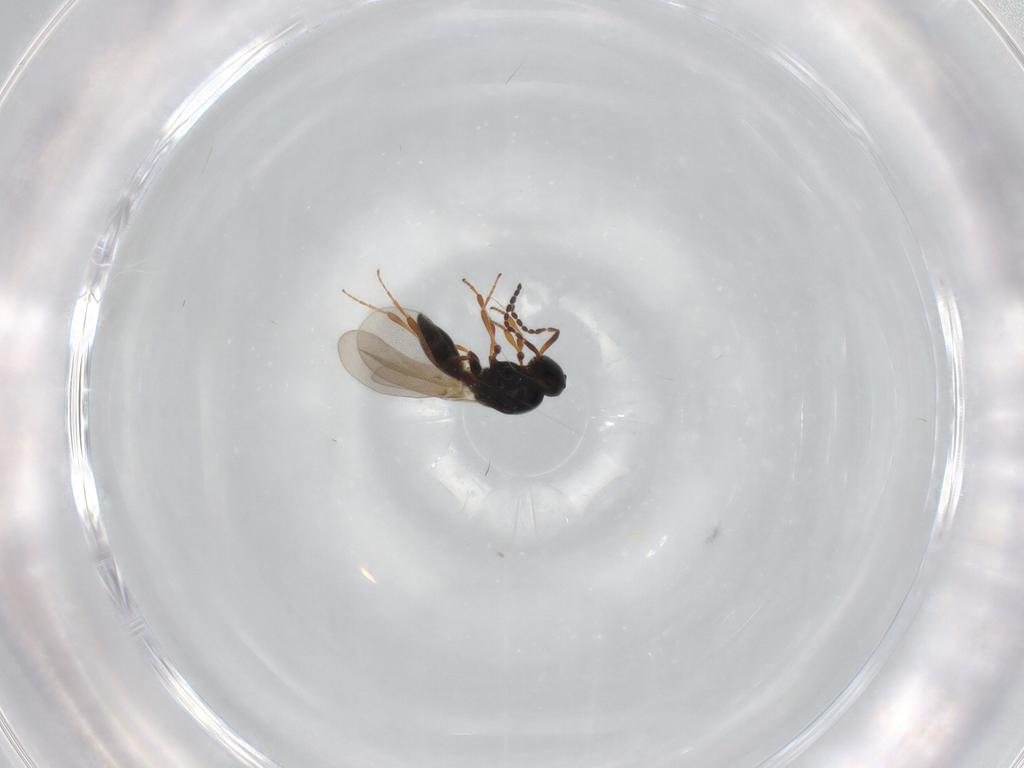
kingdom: Animalia
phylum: Arthropoda
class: Insecta
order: Hymenoptera
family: Platygastridae
